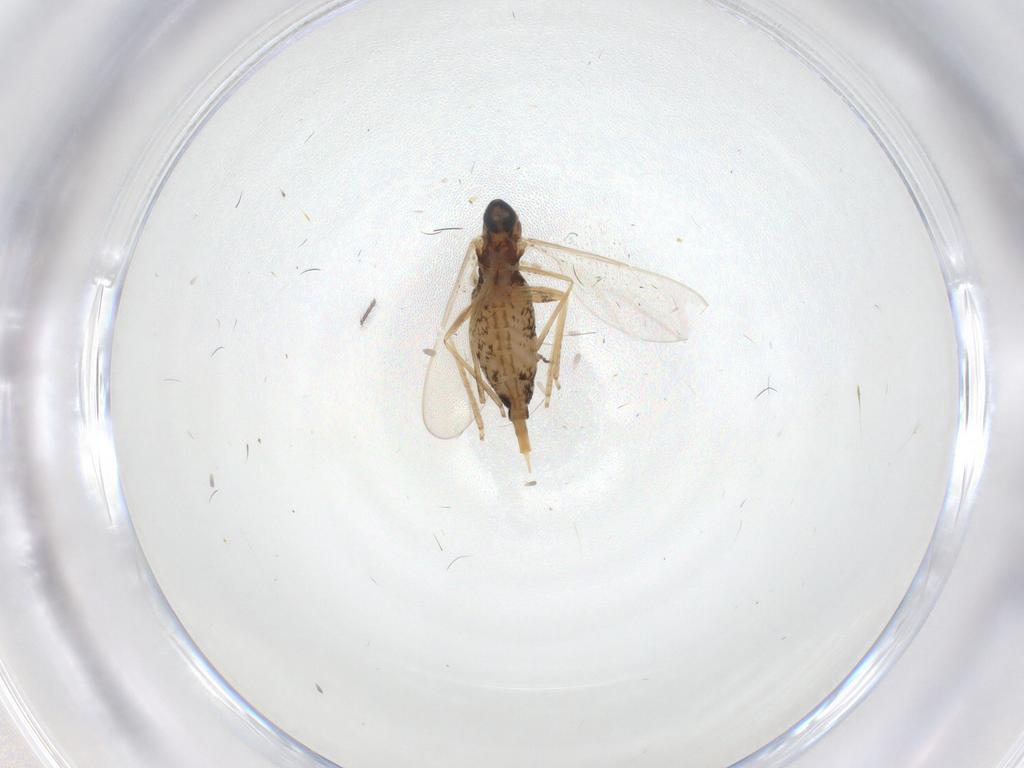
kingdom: Animalia
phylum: Arthropoda
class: Insecta
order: Diptera
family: Cecidomyiidae
